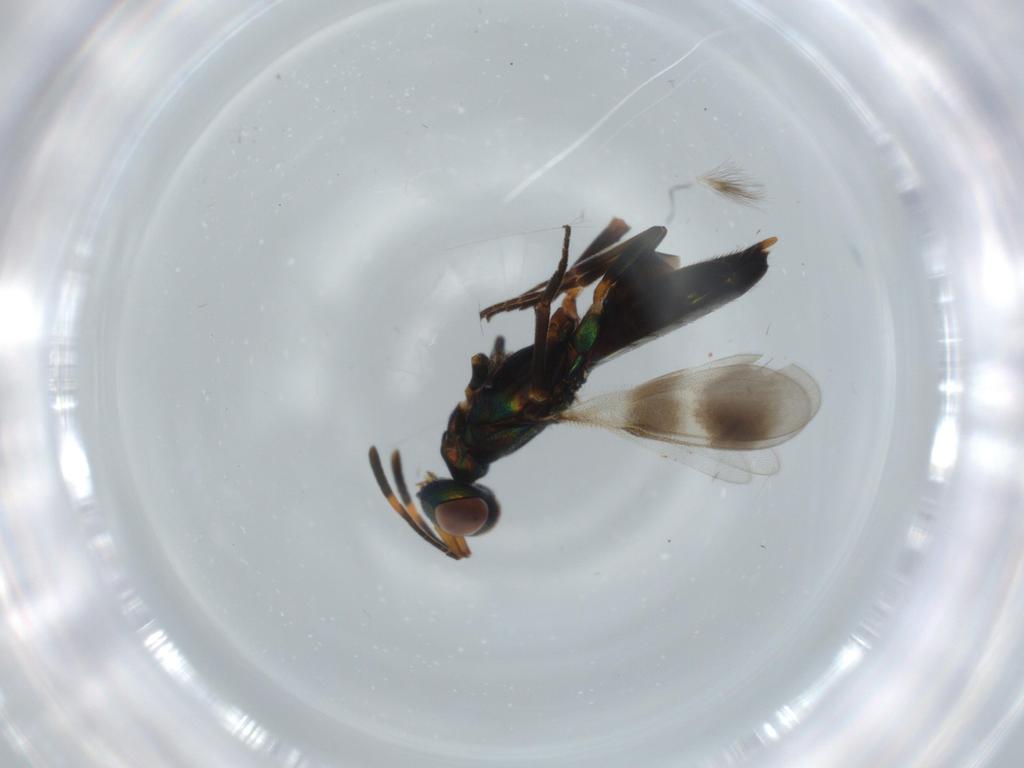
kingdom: Animalia
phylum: Arthropoda
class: Insecta
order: Hymenoptera
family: Eupelmidae
